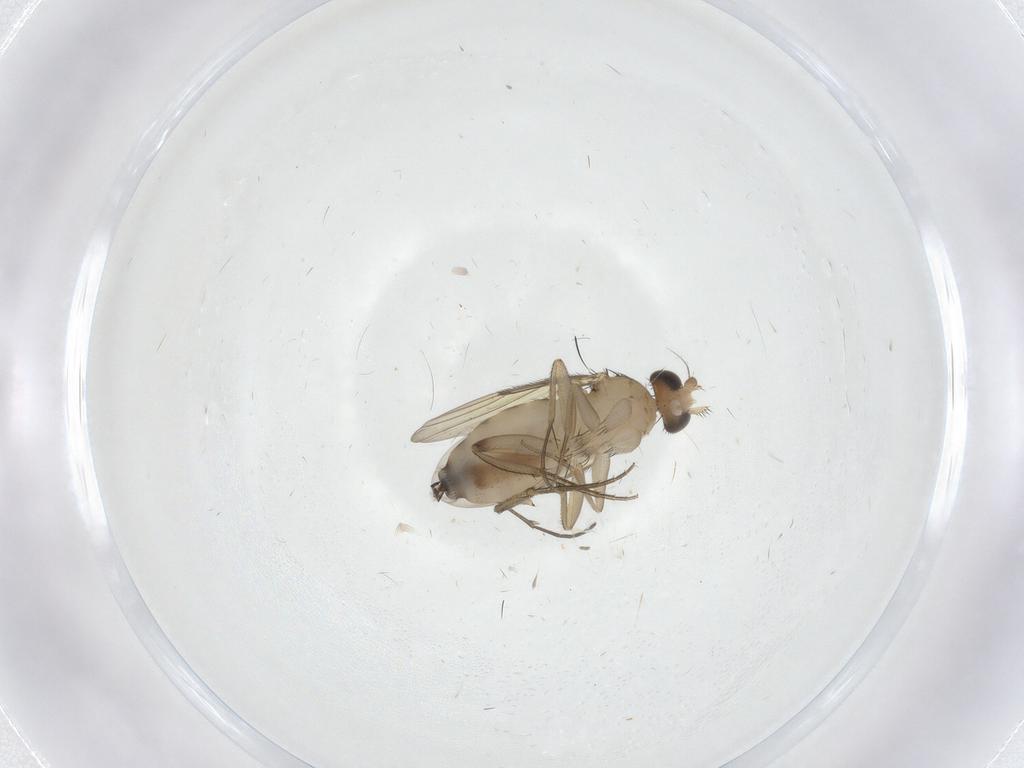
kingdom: Animalia
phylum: Arthropoda
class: Insecta
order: Diptera
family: Phoridae
